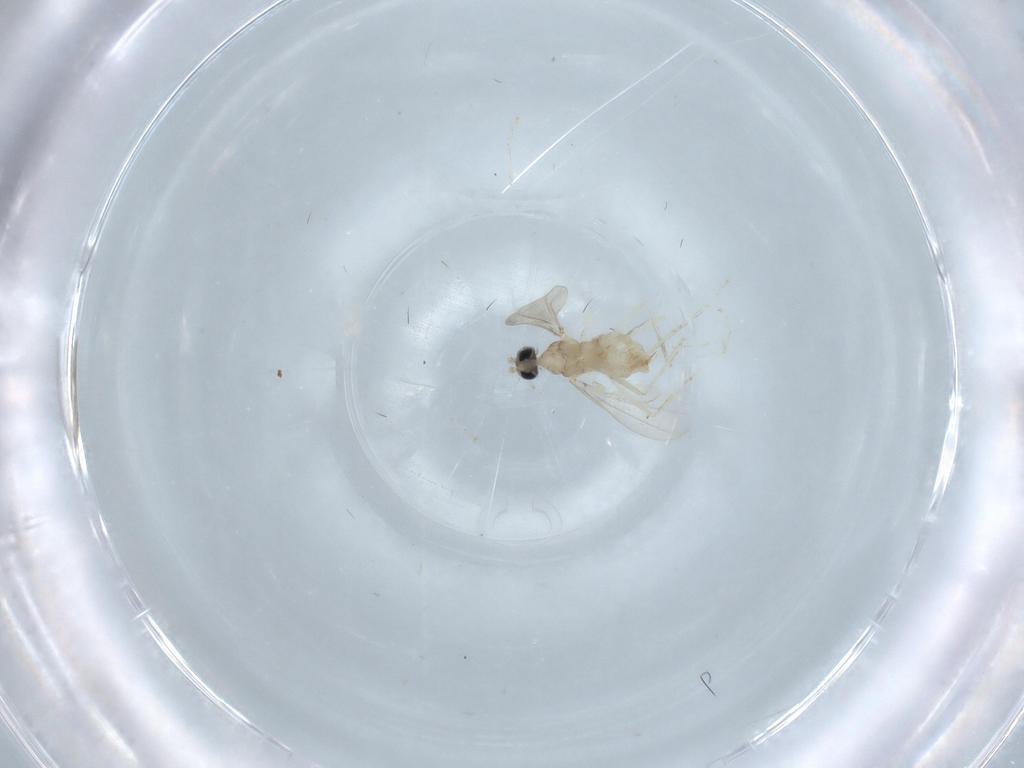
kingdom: Animalia
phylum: Arthropoda
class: Insecta
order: Diptera
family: Cecidomyiidae
